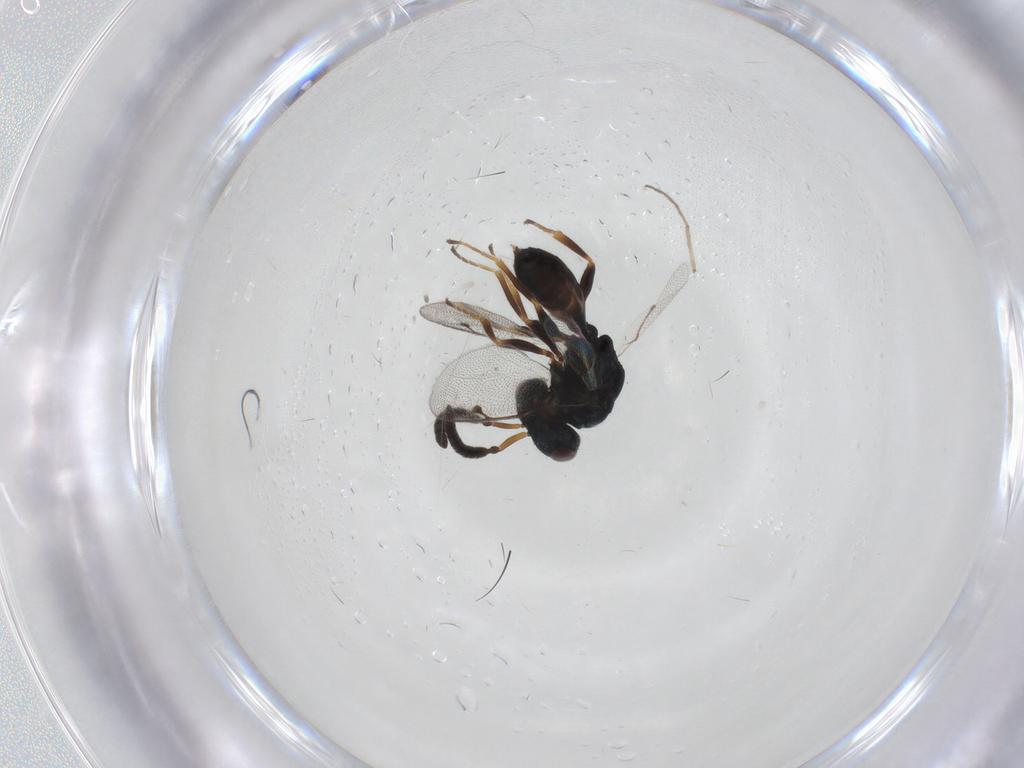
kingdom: Animalia
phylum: Arthropoda
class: Insecta
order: Hymenoptera
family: Pteromalidae
